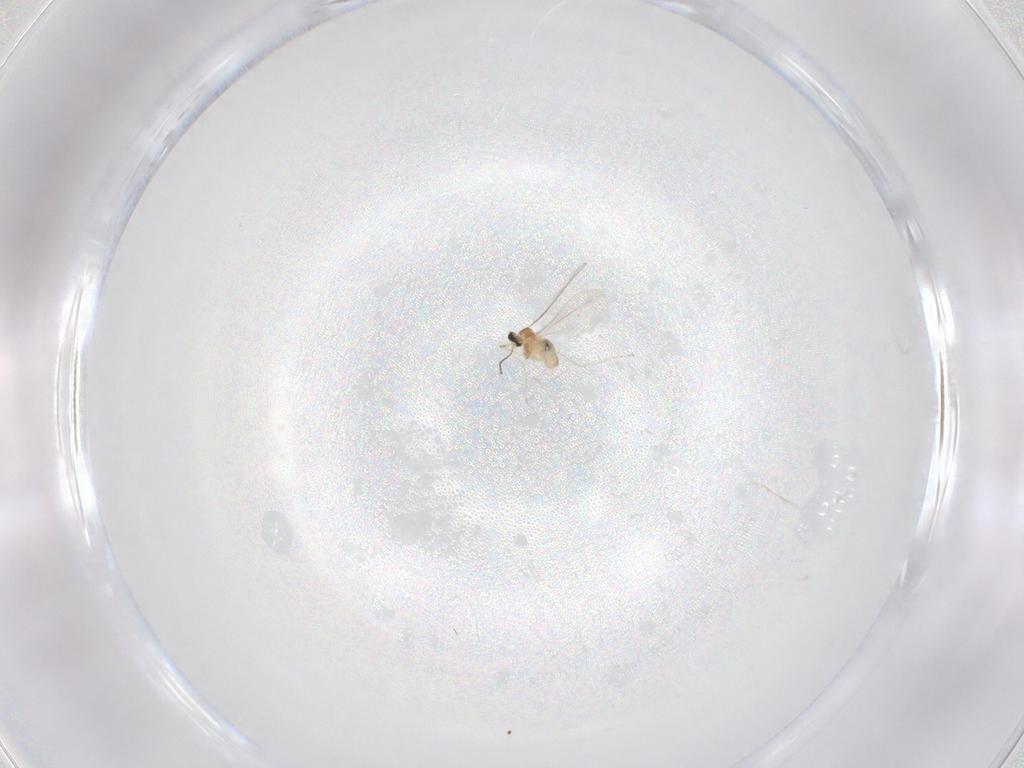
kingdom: Animalia
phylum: Arthropoda
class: Insecta
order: Diptera
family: Cecidomyiidae
